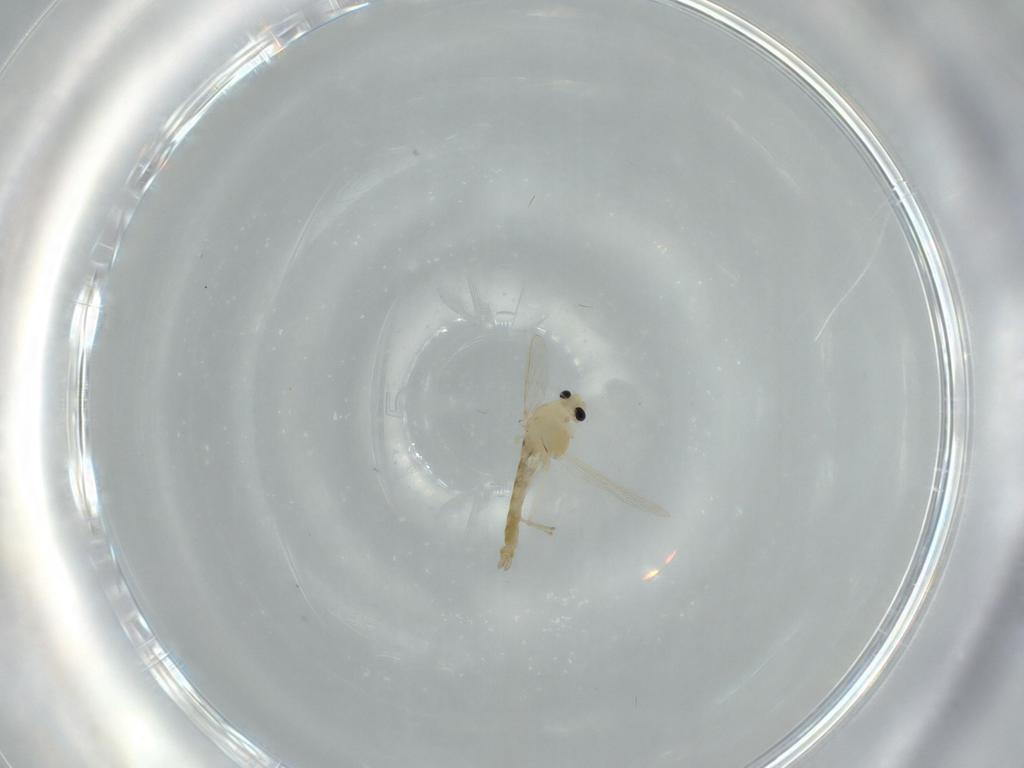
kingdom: Animalia
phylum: Arthropoda
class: Insecta
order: Diptera
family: Chironomidae
